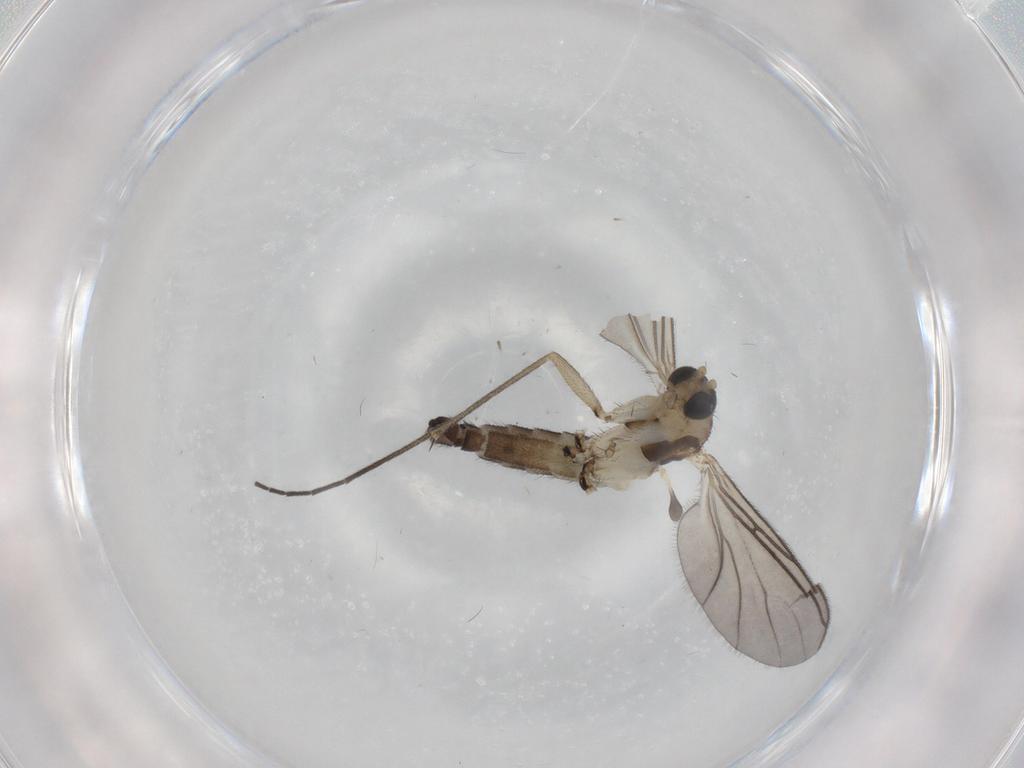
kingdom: Animalia
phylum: Arthropoda
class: Insecta
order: Diptera
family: Sciaridae
